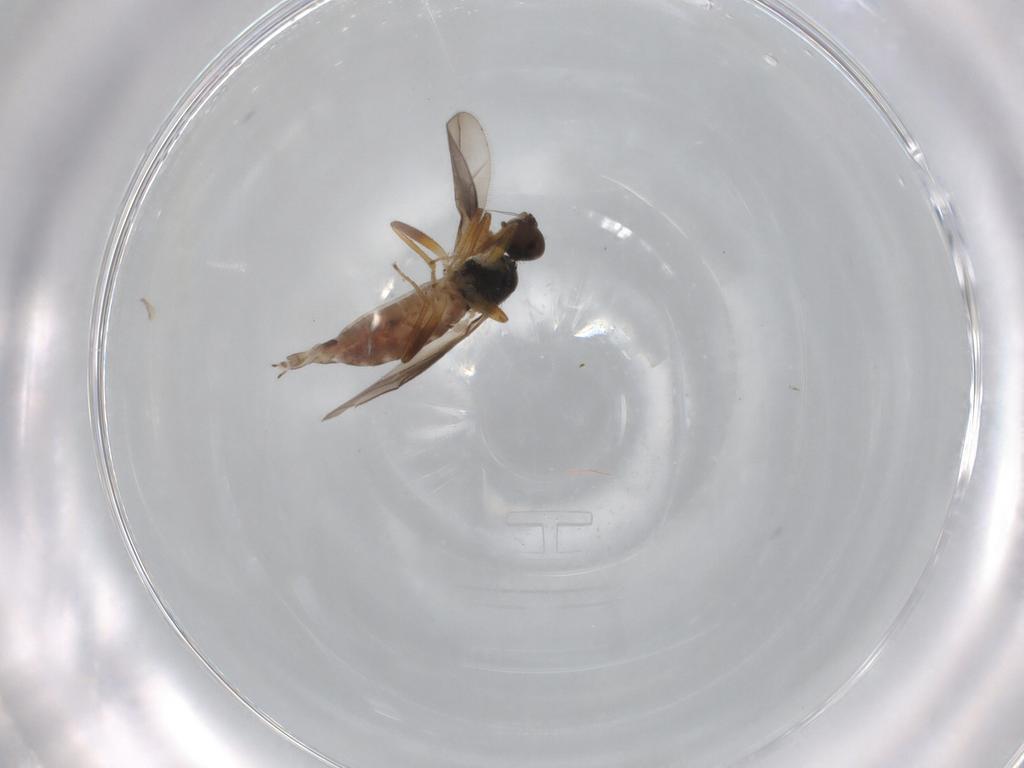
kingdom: Animalia
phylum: Arthropoda
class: Insecta
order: Diptera
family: Hybotidae
